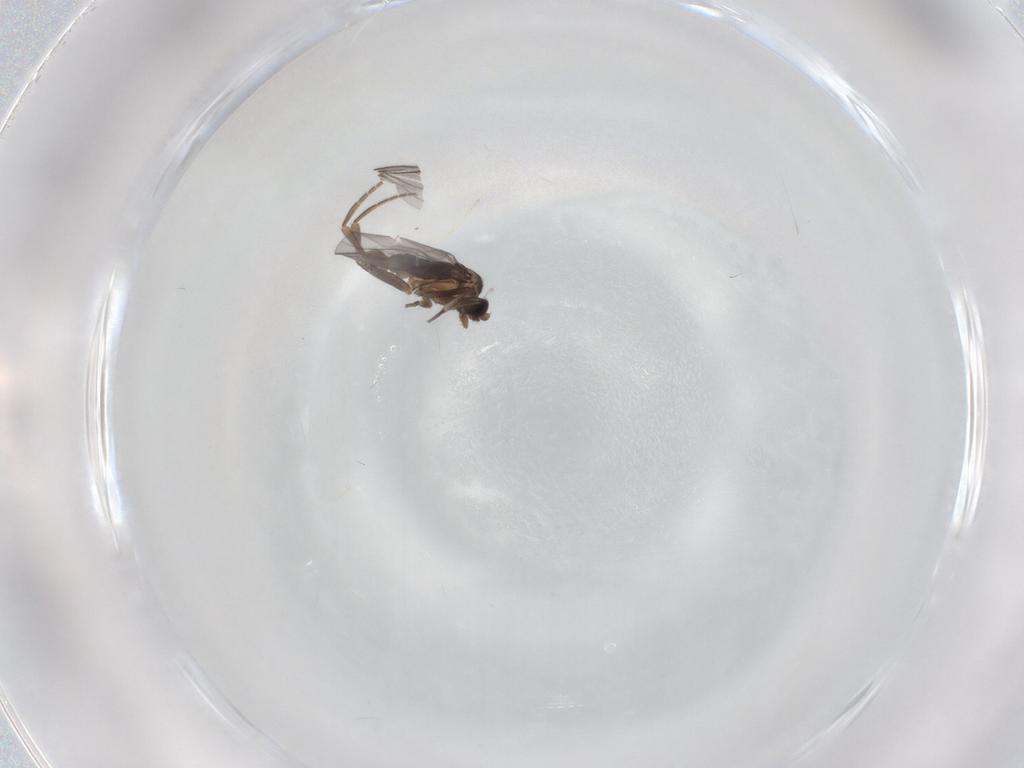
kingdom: Animalia
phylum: Arthropoda
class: Insecta
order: Diptera
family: Phoridae
